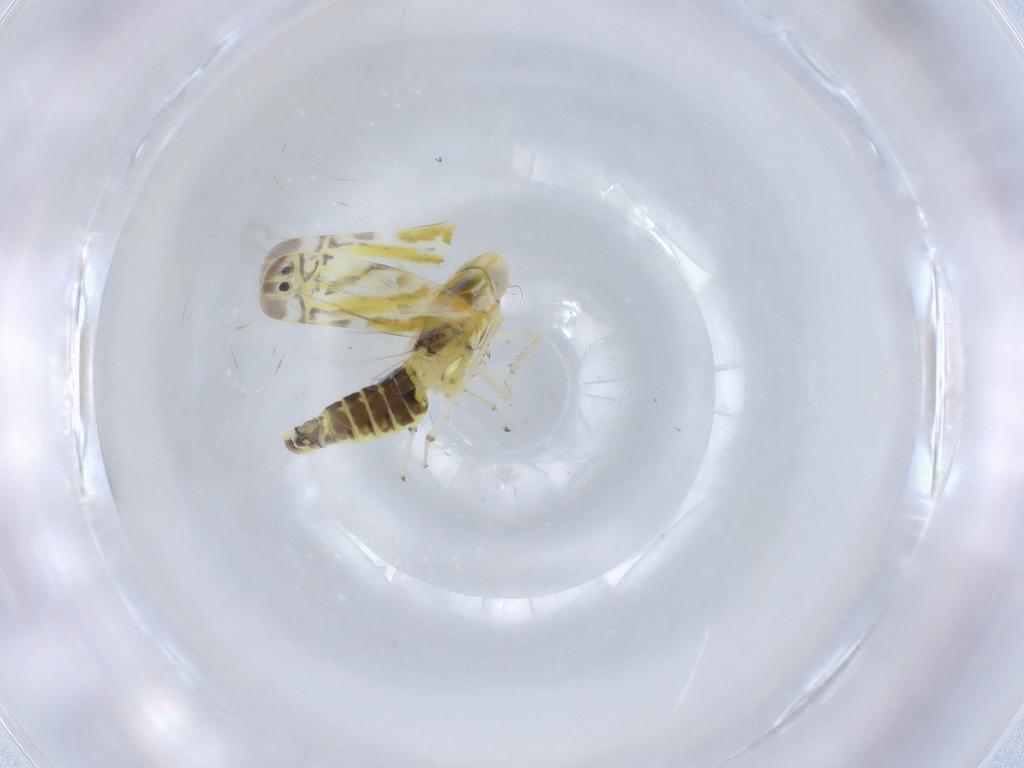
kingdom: Animalia
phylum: Arthropoda
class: Insecta
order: Hemiptera
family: Cicadellidae
